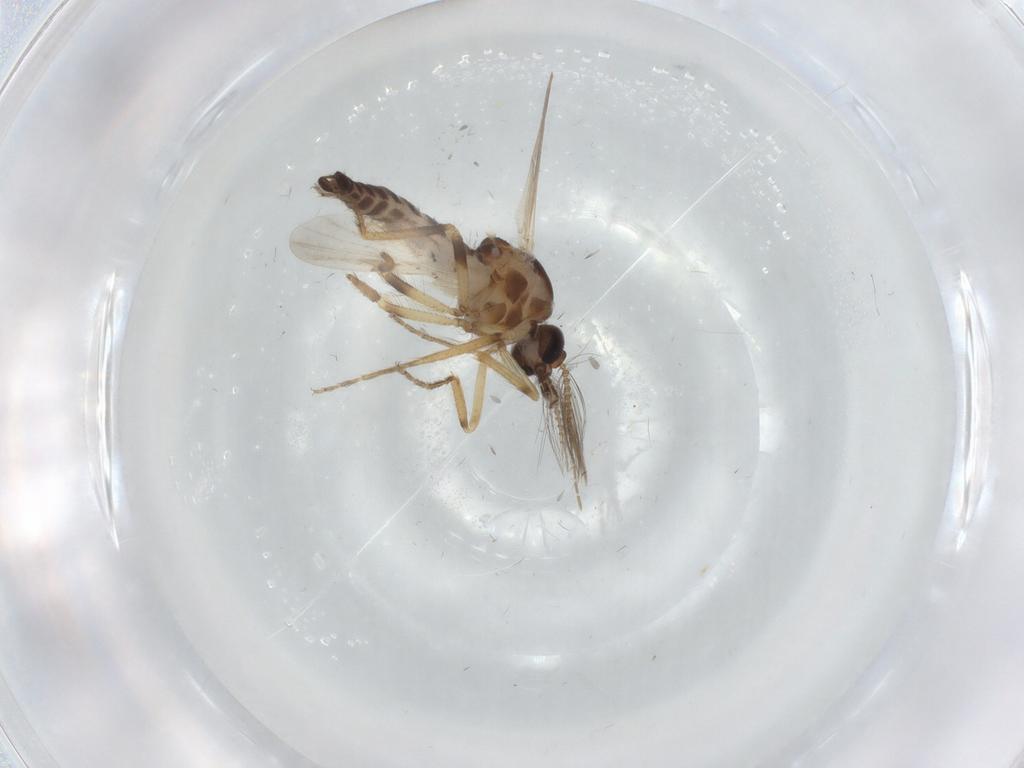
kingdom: Animalia
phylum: Arthropoda
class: Insecta
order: Diptera
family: Ceratopogonidae
